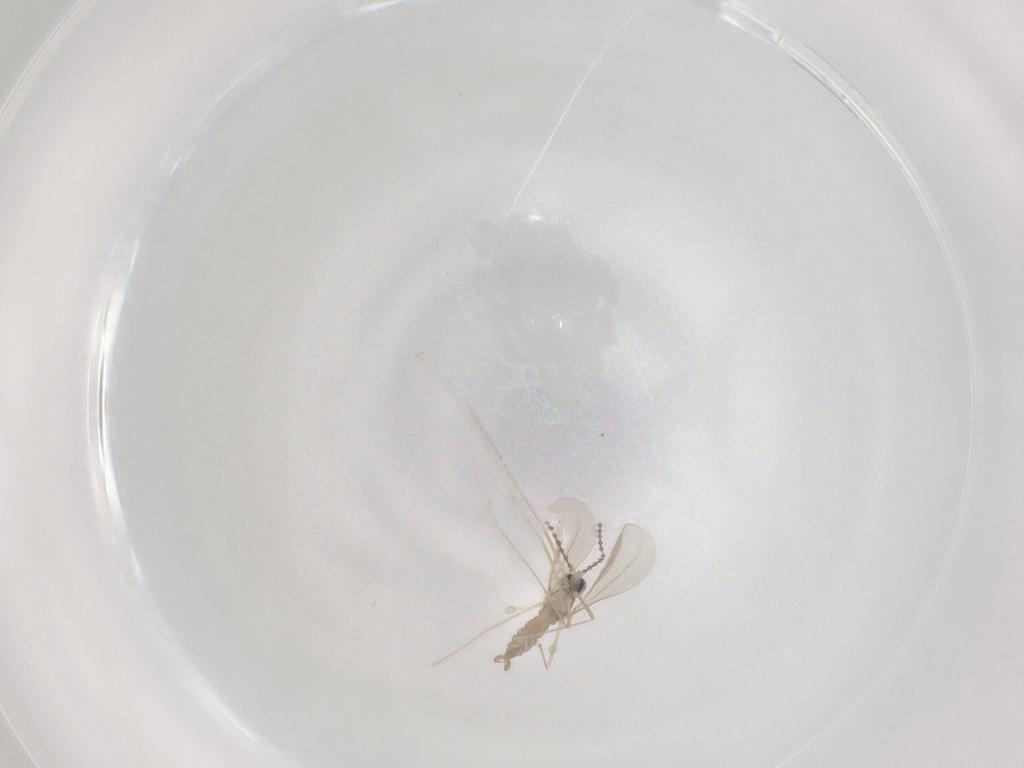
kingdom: Animalia
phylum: Arthropoda
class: Insecta
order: Diptera
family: Cecidomyiidae
